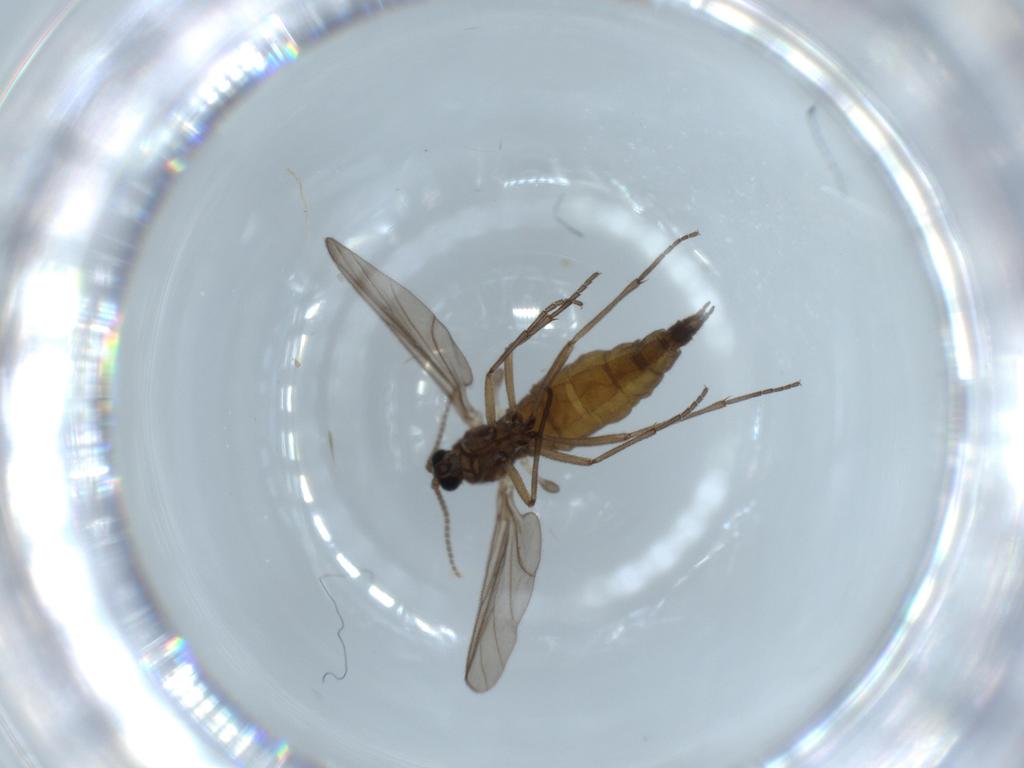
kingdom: Animalia
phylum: Arthropoda
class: Insecta
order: Diptera
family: Sciaridae
